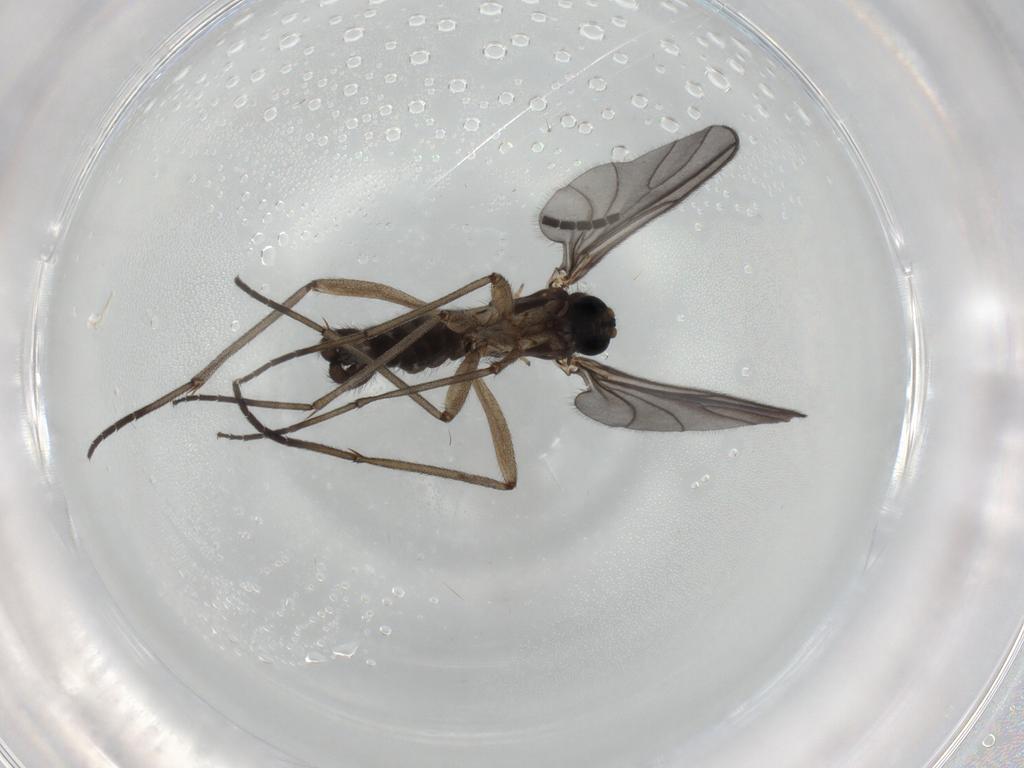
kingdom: Animalia
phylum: Arthropoda
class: Insecta
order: Diptera
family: Sciaridae
